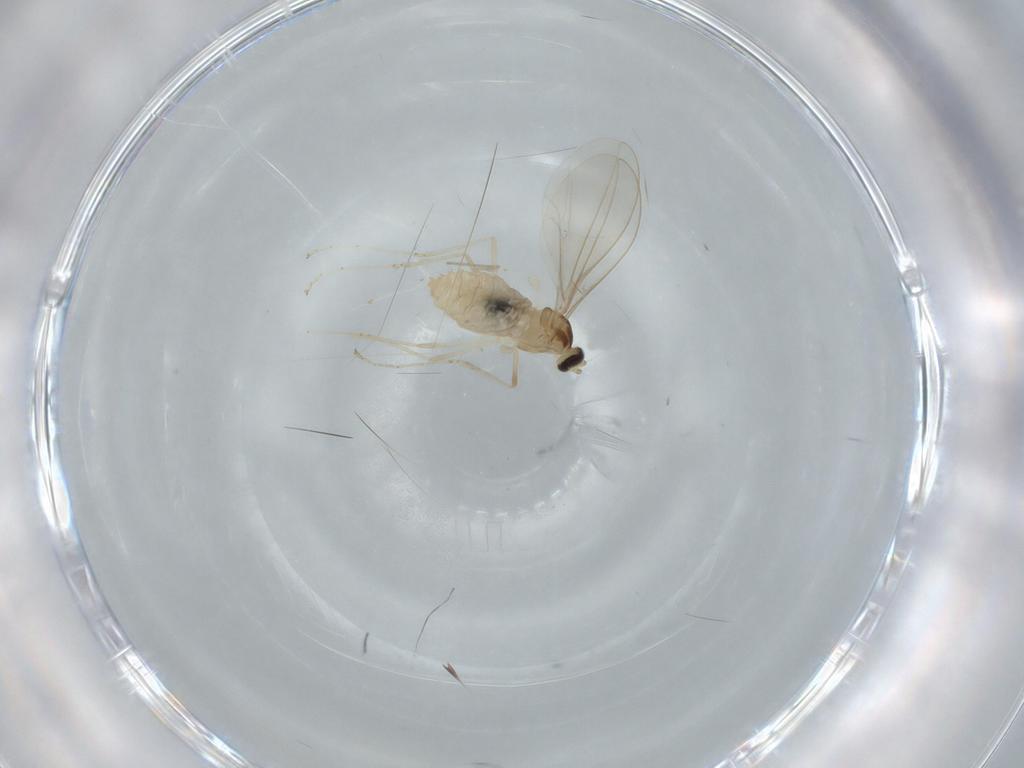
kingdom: Animalia
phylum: Arthropoda
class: Insecta
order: Diptera
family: Cecidomyiidae
